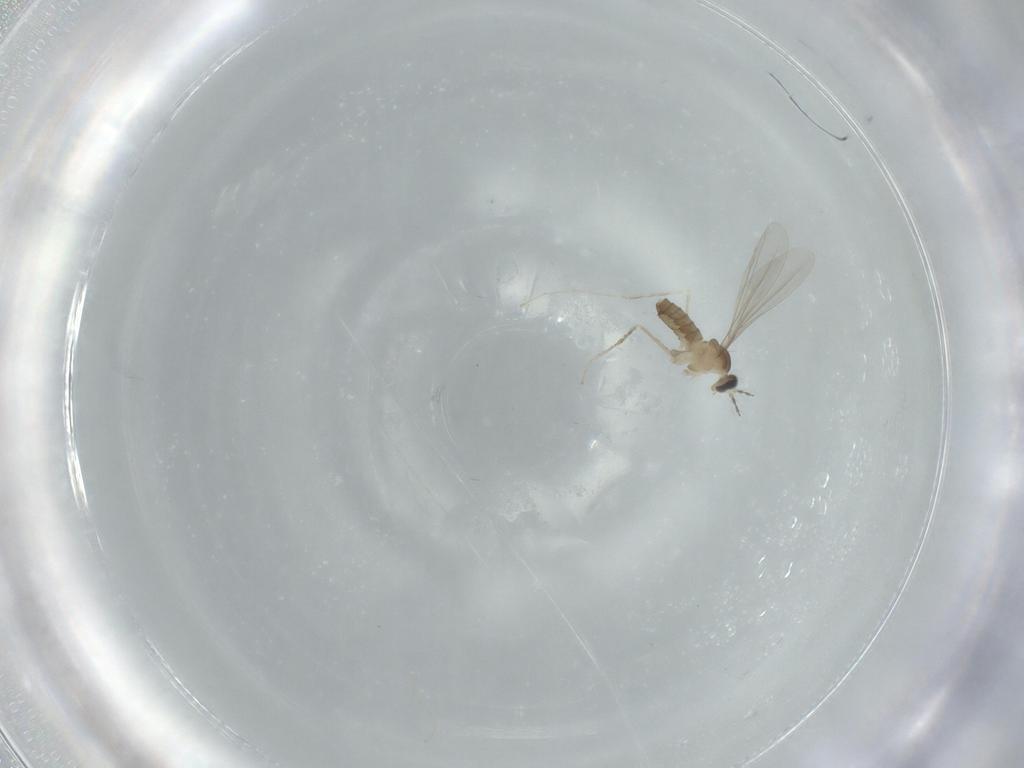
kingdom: Animalia
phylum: Arthropoda
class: Insecta
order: Diptera
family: Cecidomyiidae
